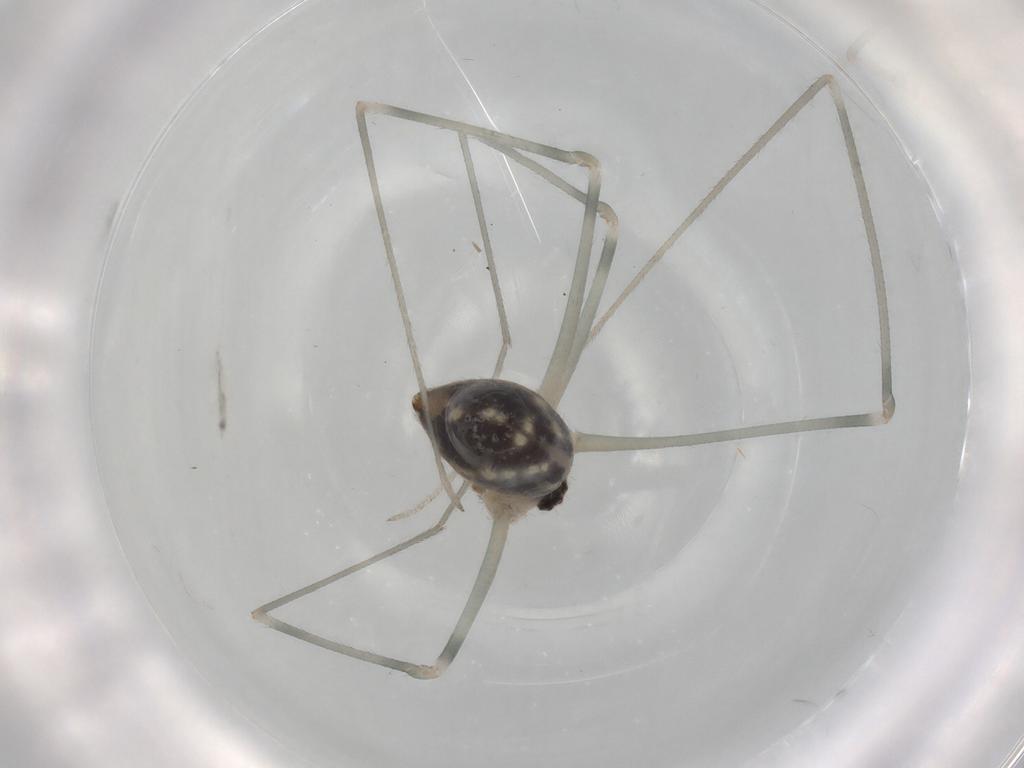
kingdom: Animalia
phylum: Arthropoda
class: Arachnida
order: Araneae
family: Pholcidae
